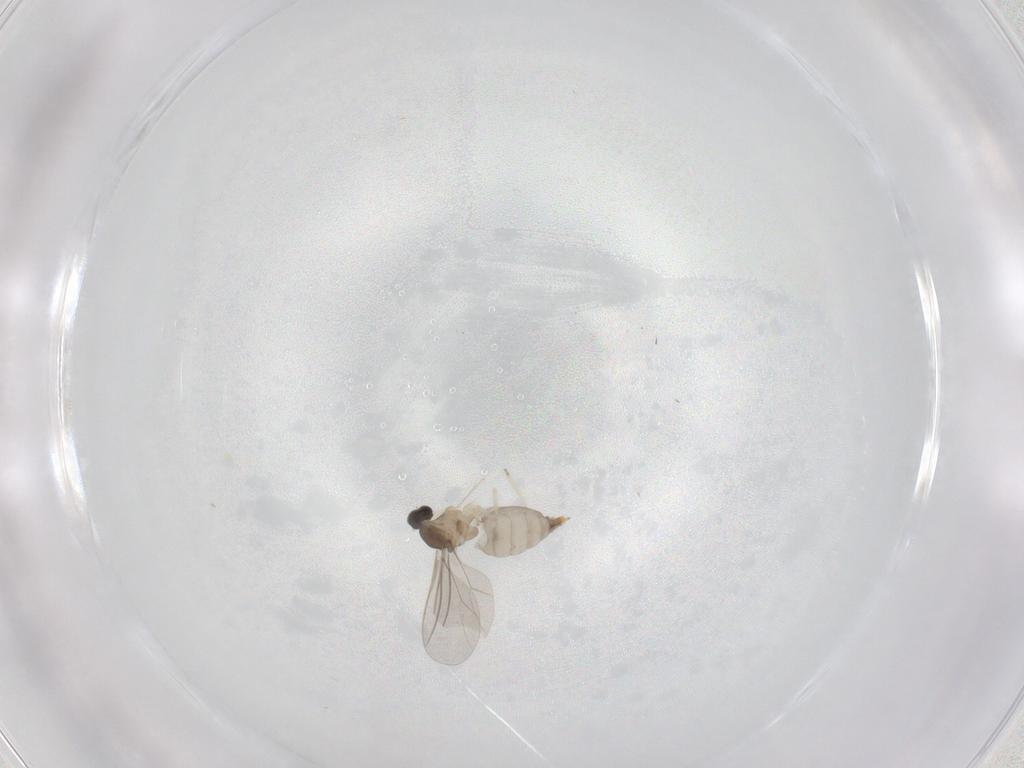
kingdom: Animalia
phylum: Arthropoda
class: Insecta
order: Diptera
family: Cecidomyiidae
